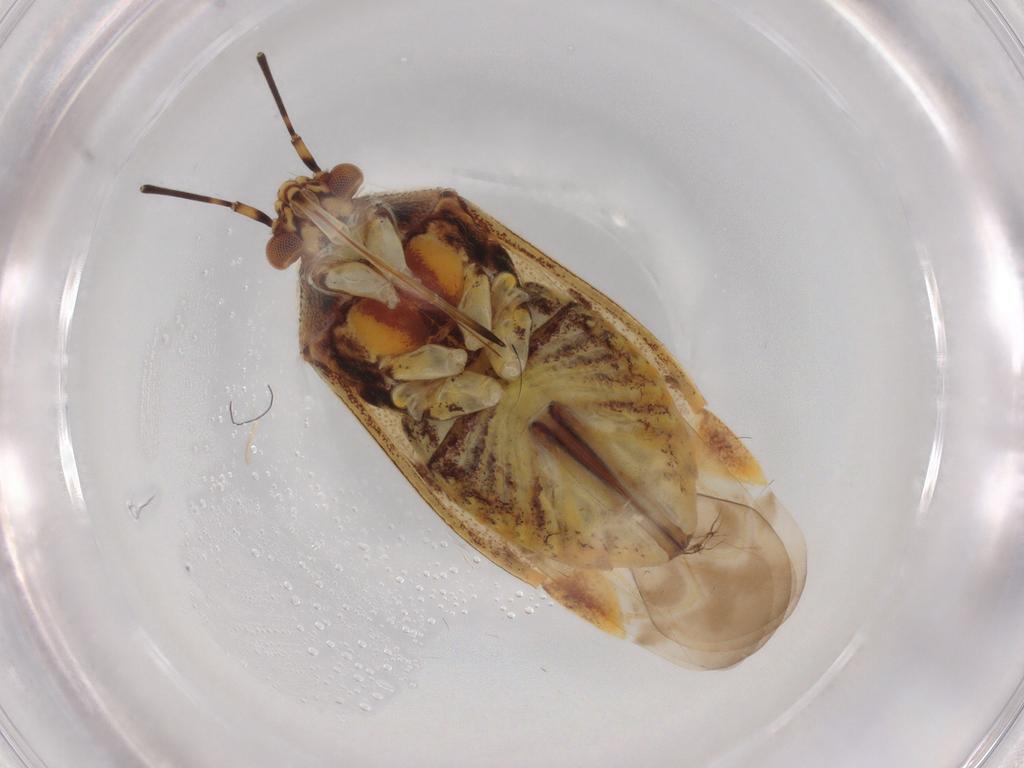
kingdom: Animalia
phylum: Arthropoda
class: Insecta
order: Hemiptera
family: Miridae
